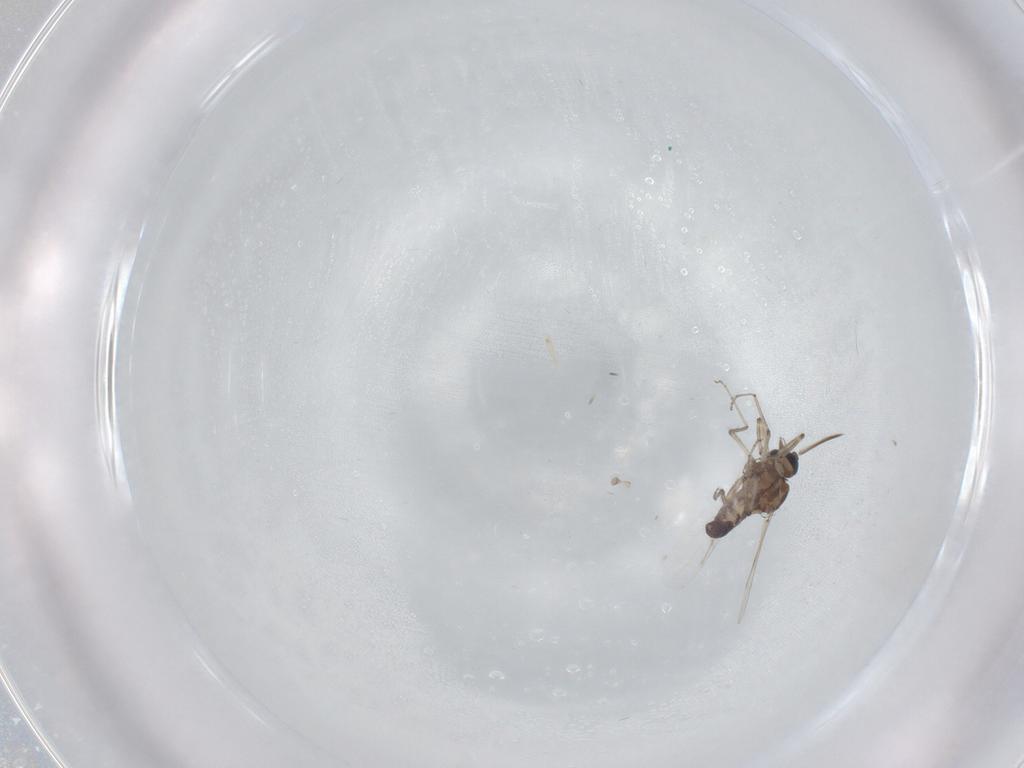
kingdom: Animalia
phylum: Arthropoda
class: Insecta
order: Diptera
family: Ceratopogonidae
